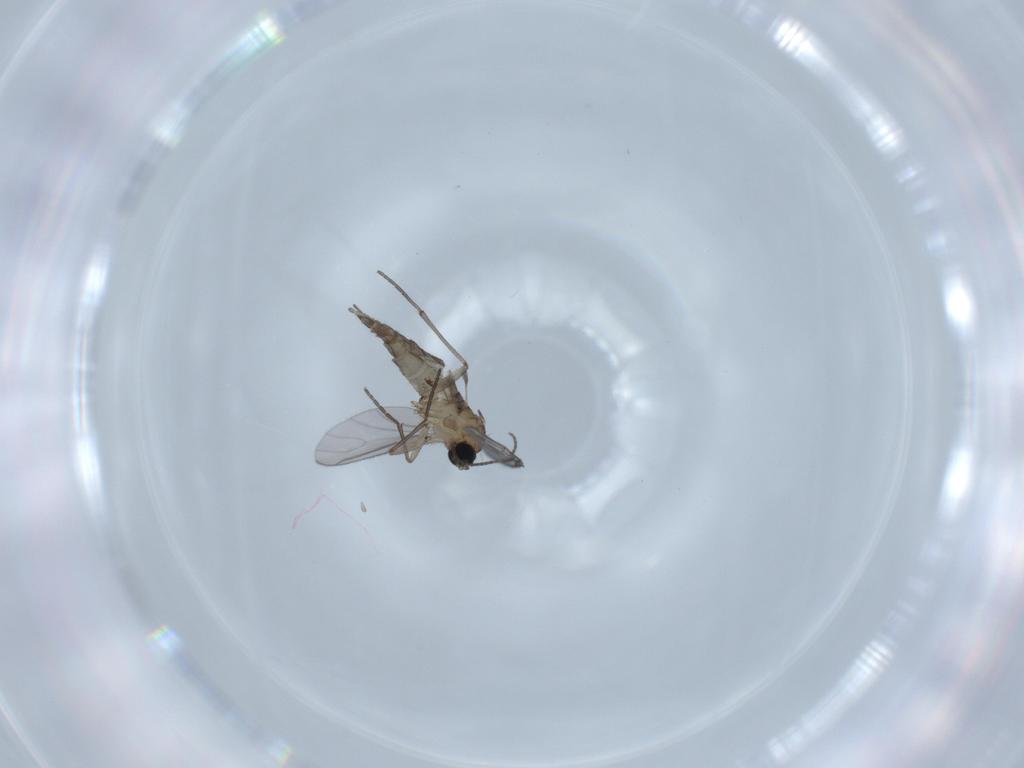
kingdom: Animalia
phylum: Arthropoda
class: Insecta
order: Diptera
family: Sciaridae
